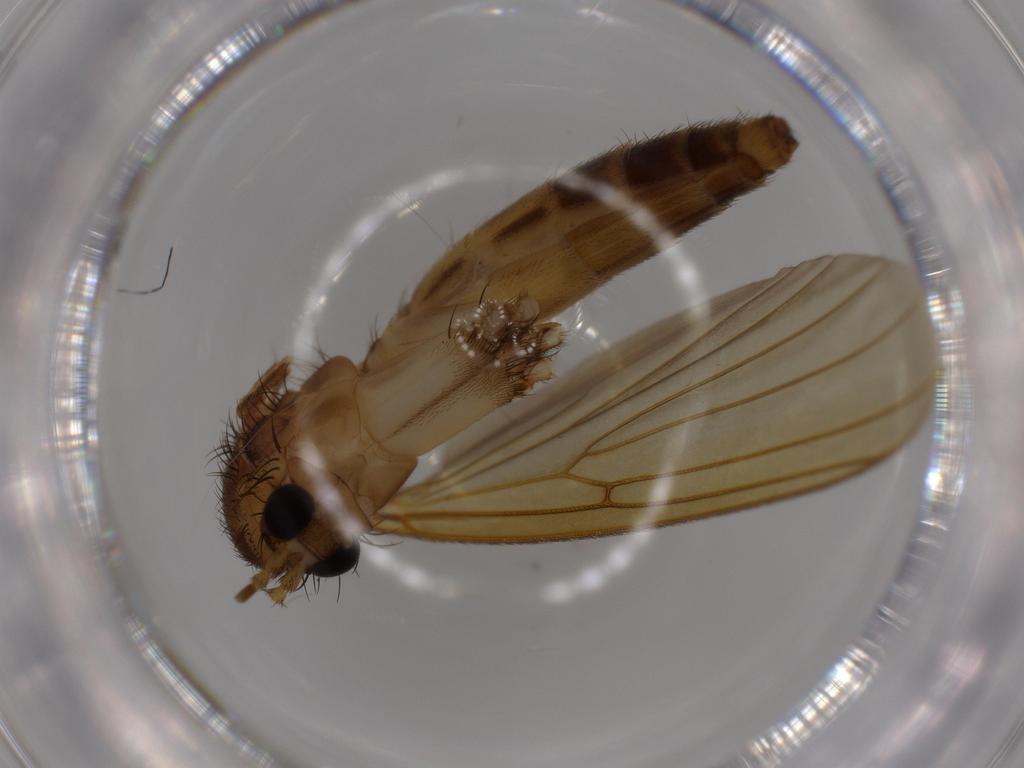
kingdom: Animalia
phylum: Arthropoda
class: Insecta
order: Diptera
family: Mycetophilidae
